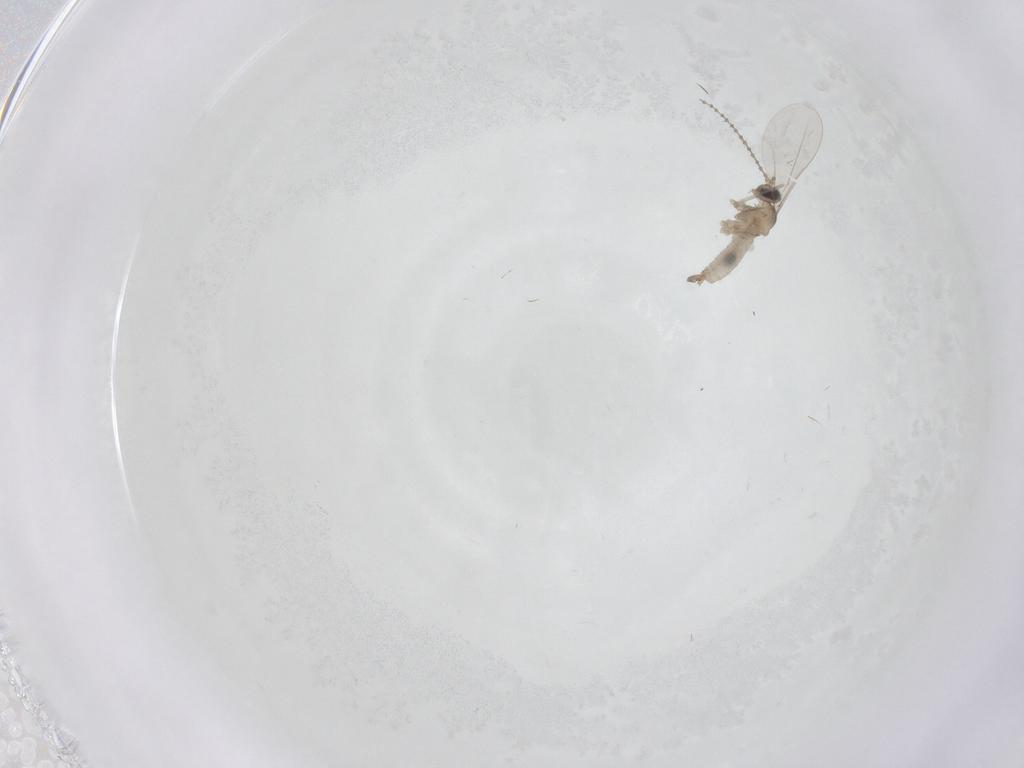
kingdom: Animalia
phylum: Arthropoda
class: Insecta
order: Diptera
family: Cecidomyiidae
